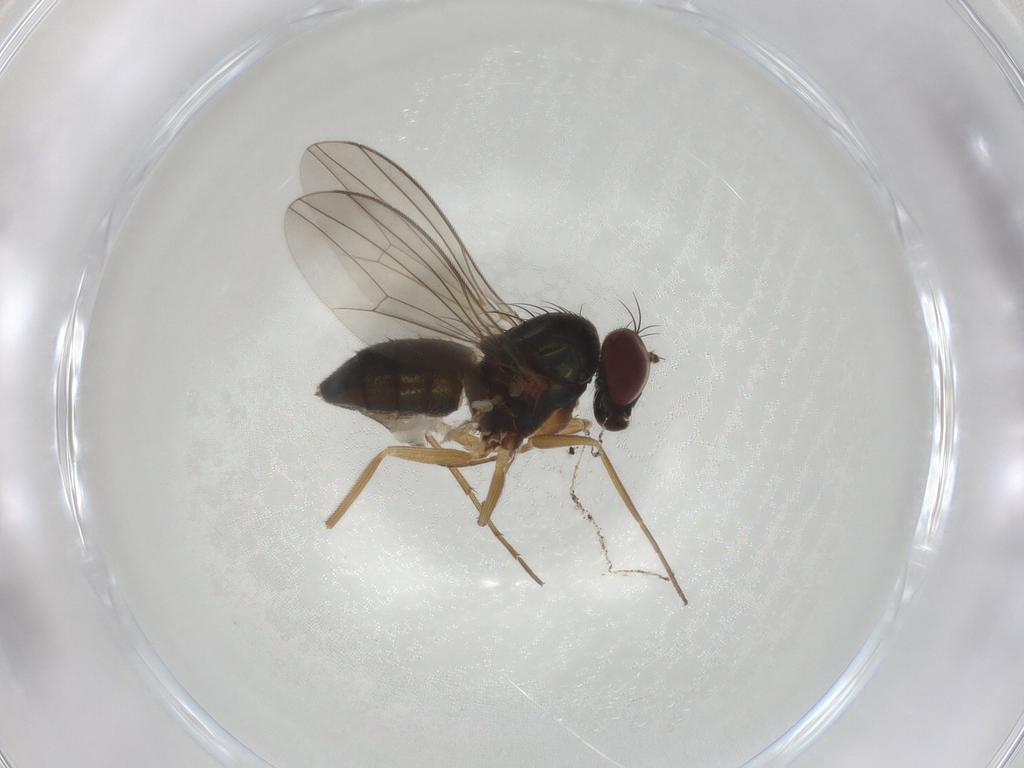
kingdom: Animalia
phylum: Arthropoda
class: Insecta
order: Diptera
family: Dolichopodidae
